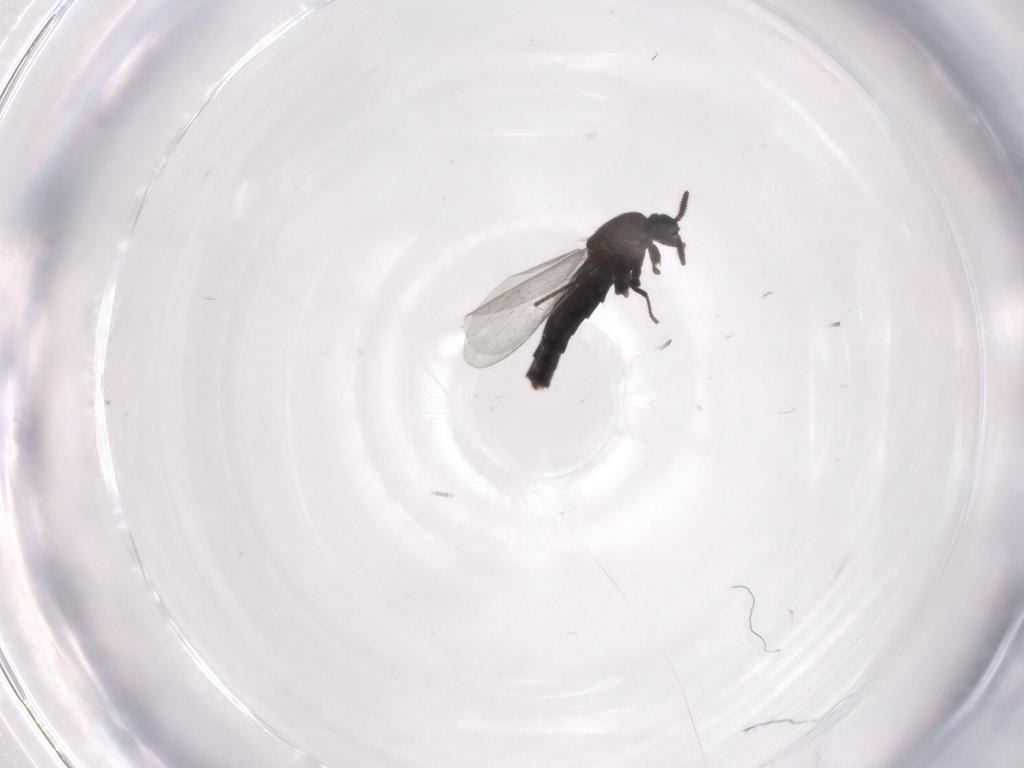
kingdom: Animalia
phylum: Arthropoda
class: Insecta
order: Diptera
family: Scatopsidae
